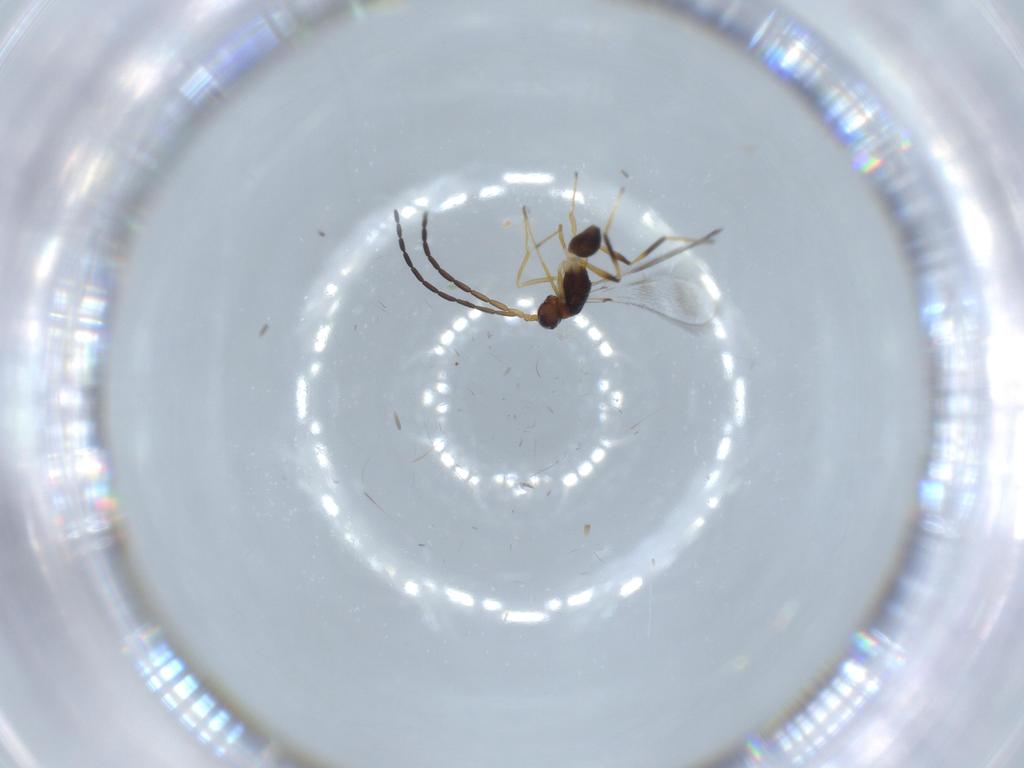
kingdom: Animalia
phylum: Arthropoda
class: Insecta
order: Hymenoptera
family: Mymaridae
